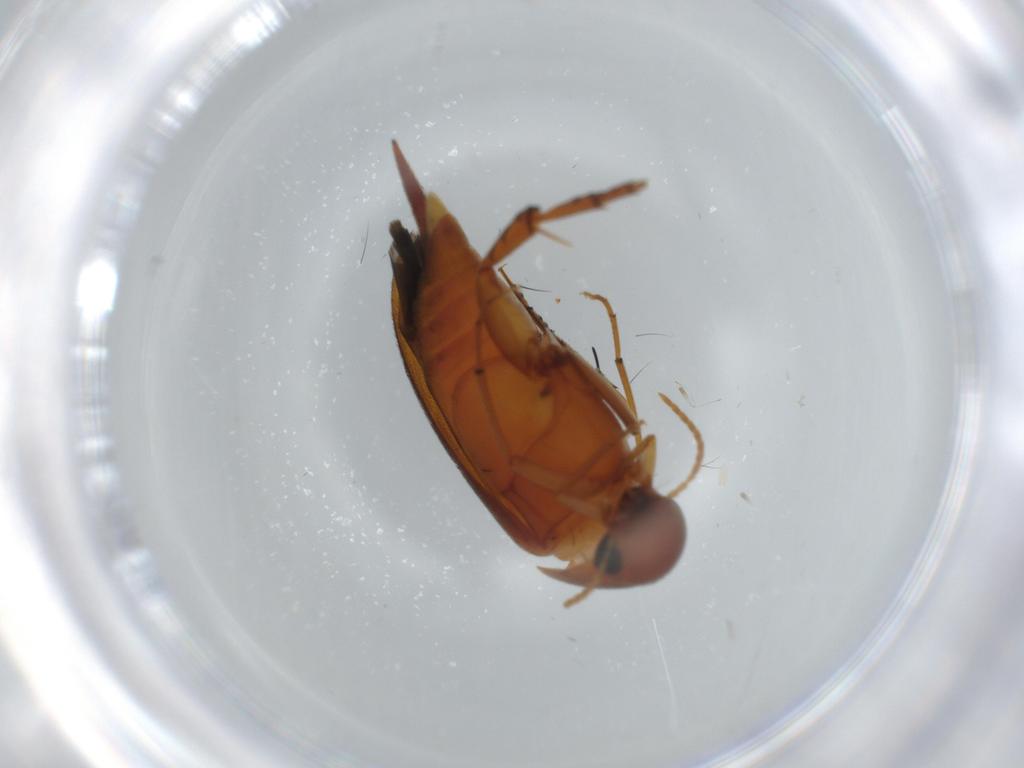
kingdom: Animalia
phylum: Arthropoda
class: Insecta
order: Coleoptera
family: Mordellidae
